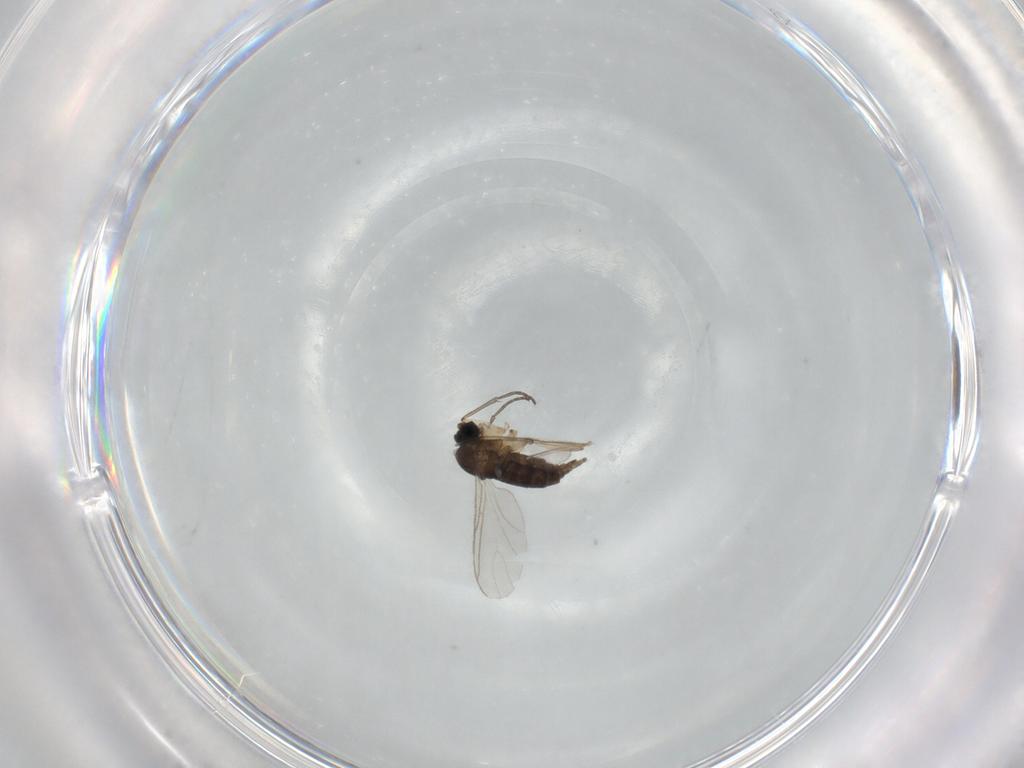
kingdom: Animalia
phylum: Arthropoda
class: Insecta
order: Diptera
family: Sciaridae
